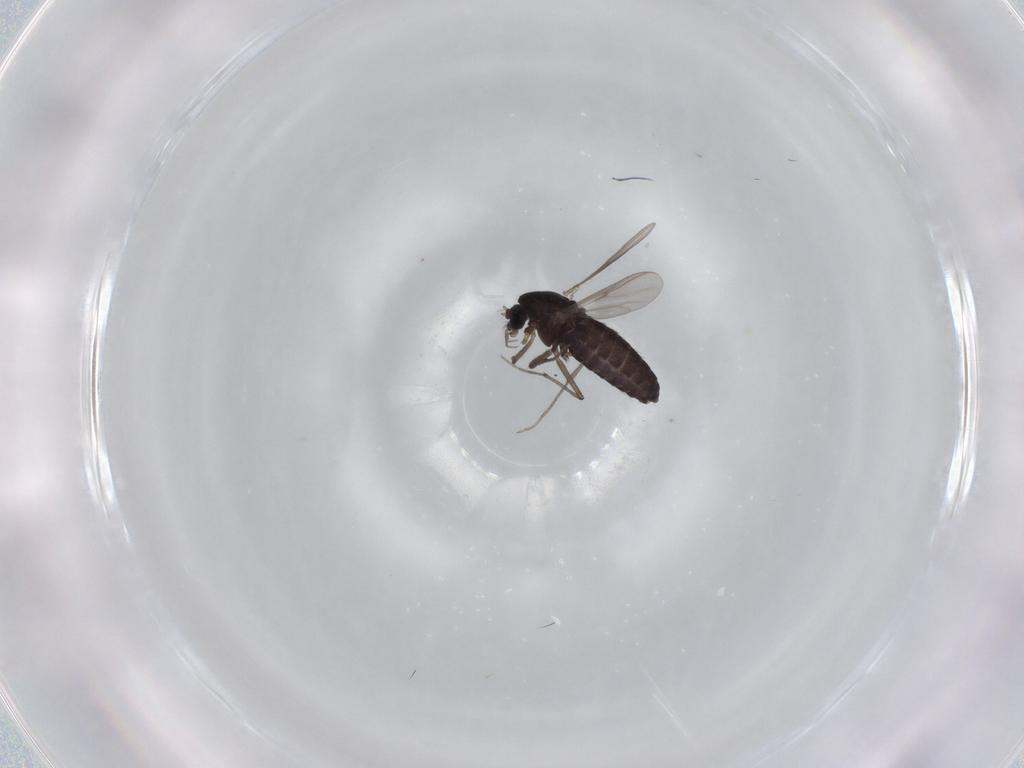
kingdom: Animalia
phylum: Arthropoda
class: Insecta
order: Diptera
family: Chironomidae
